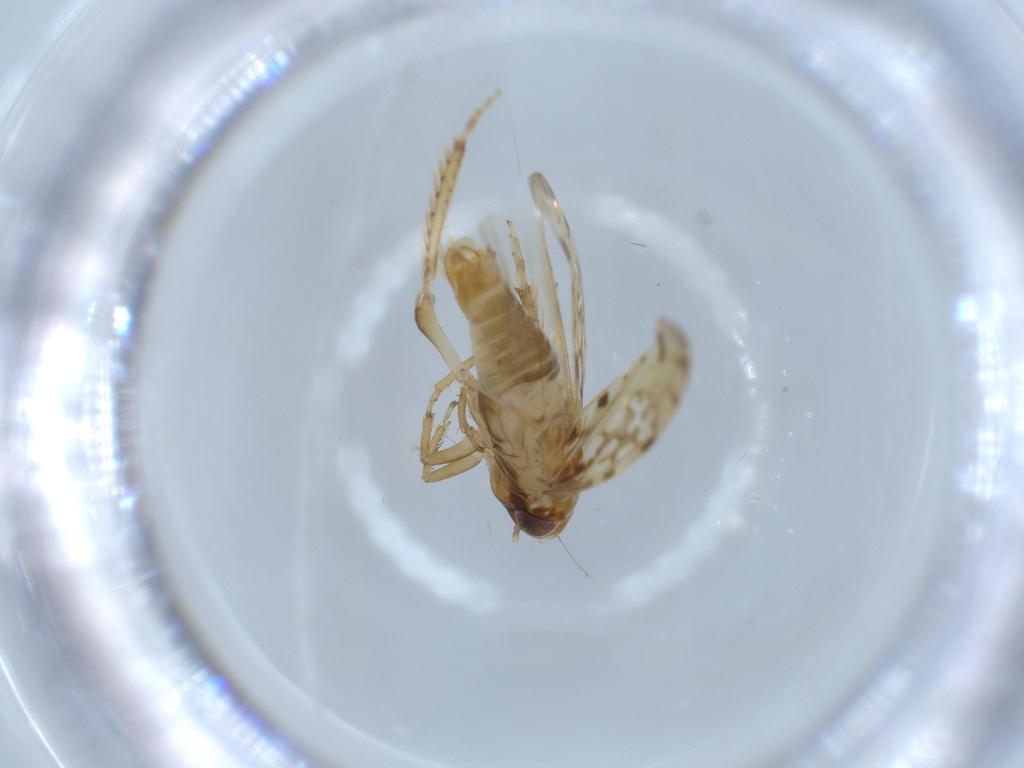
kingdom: Animalia
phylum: Arthropoda
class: Insecta
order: Hemiptera
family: Cicadellidae
